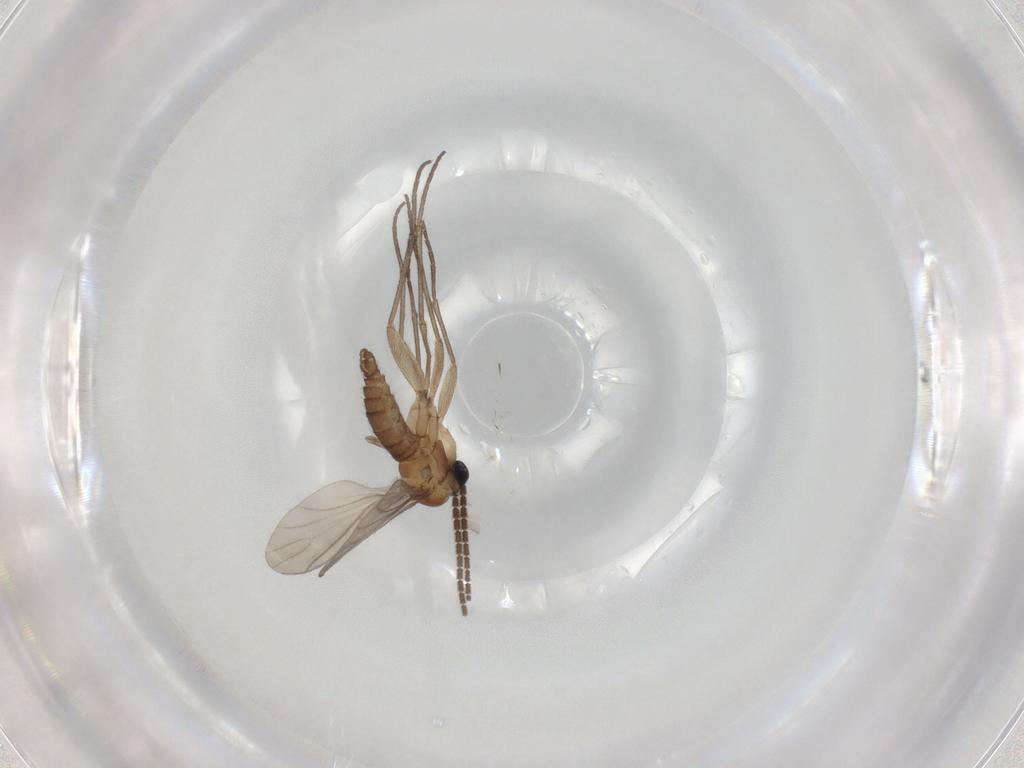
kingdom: Animalia
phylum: Arthropoda
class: Insecta
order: Diptera
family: Sciaridae
